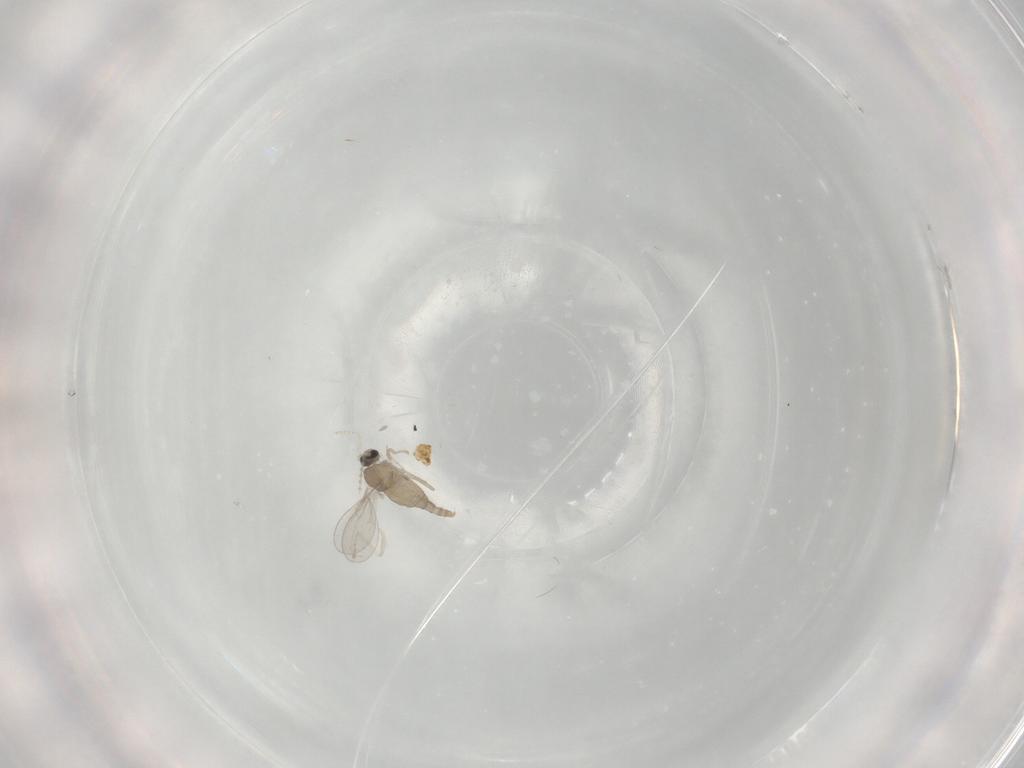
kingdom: Animalia
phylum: Arthropoda
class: Insecta
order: Diptera
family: Cecidomyiidae
